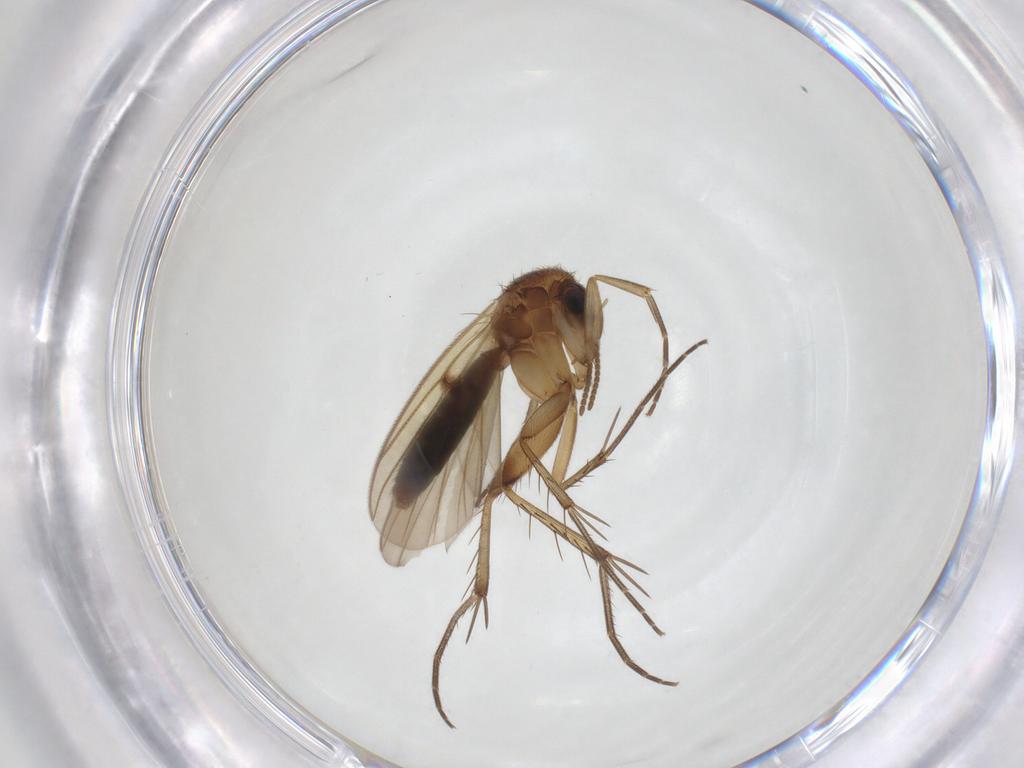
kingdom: Animalia
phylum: Arthropoda
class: Insecta
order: Diptera
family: Mycetophilidae
